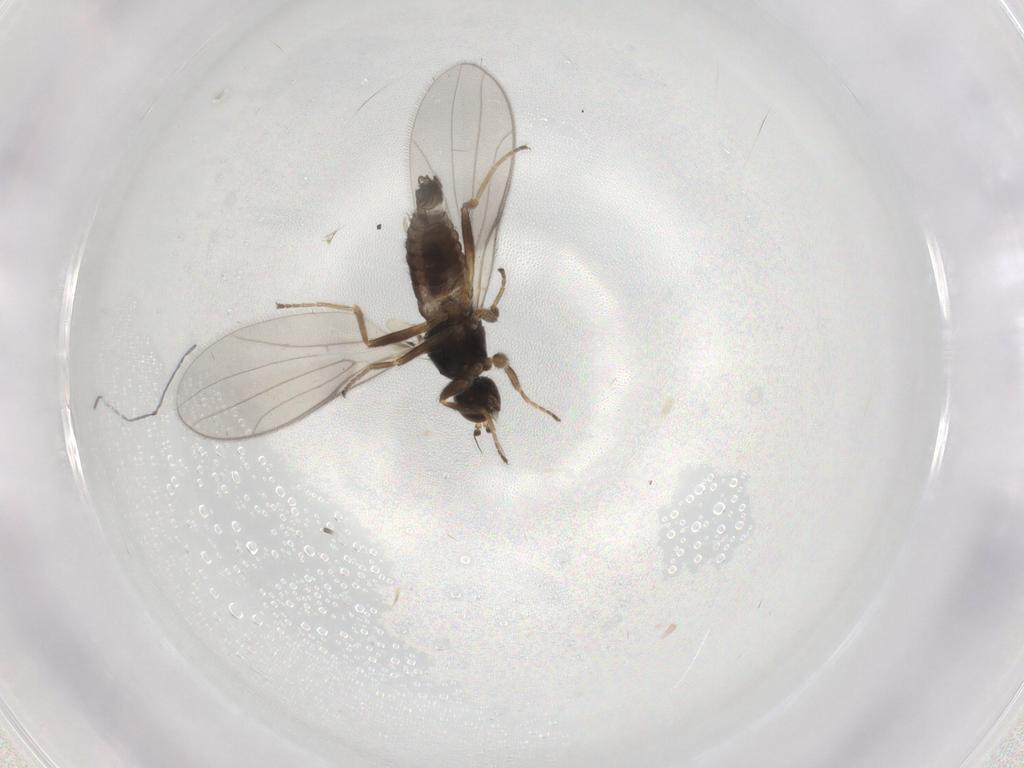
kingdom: Animalia
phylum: Arthropoda
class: Insecta
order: Diptera
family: Hybotidae
